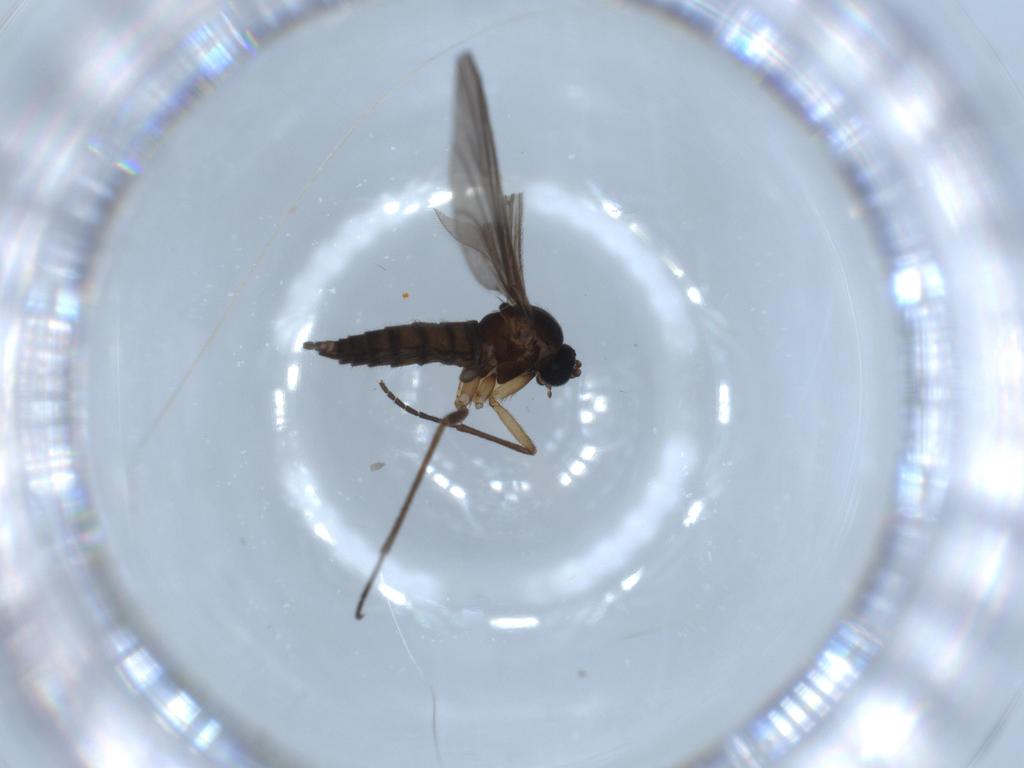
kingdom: Animalia
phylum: Arthropoda
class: Insecta
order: Diptera
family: Sciaridae
